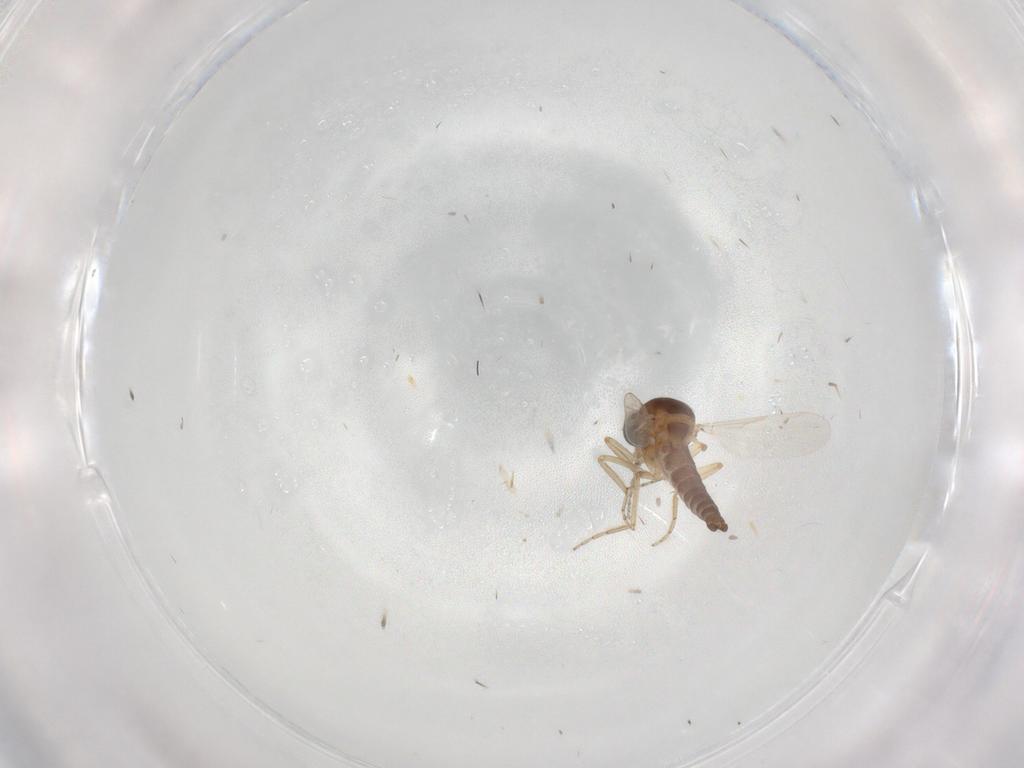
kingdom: Animalia
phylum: Arthropoda
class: Insecta
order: Diptera
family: Ceratopogonidae
